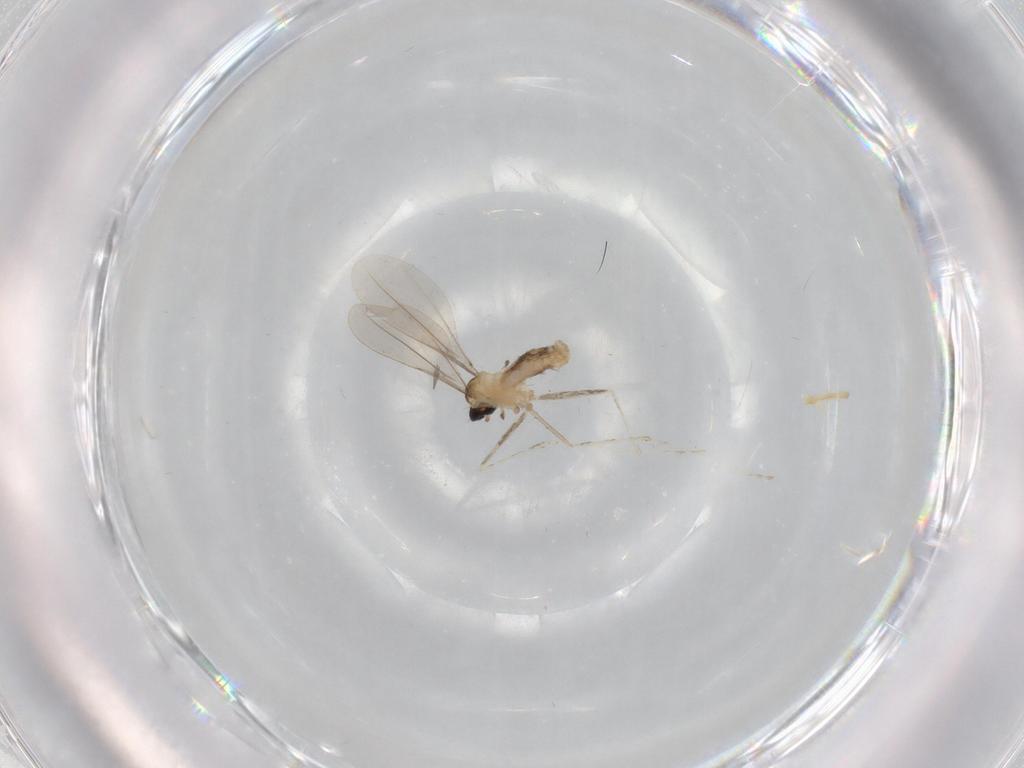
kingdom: Animalia
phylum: Arthropoda
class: Insecta
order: Diptera
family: Cecidomyiidae
